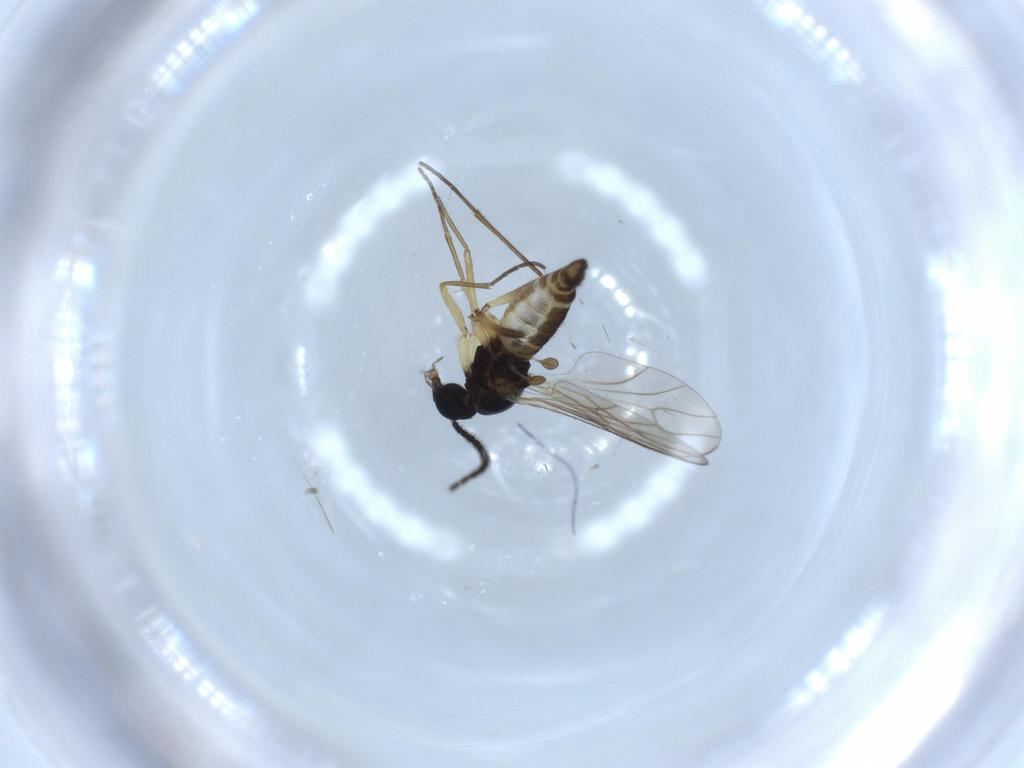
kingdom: Animalia
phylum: Arthropoda
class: Insecta
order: Diptera
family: Sciaridae
